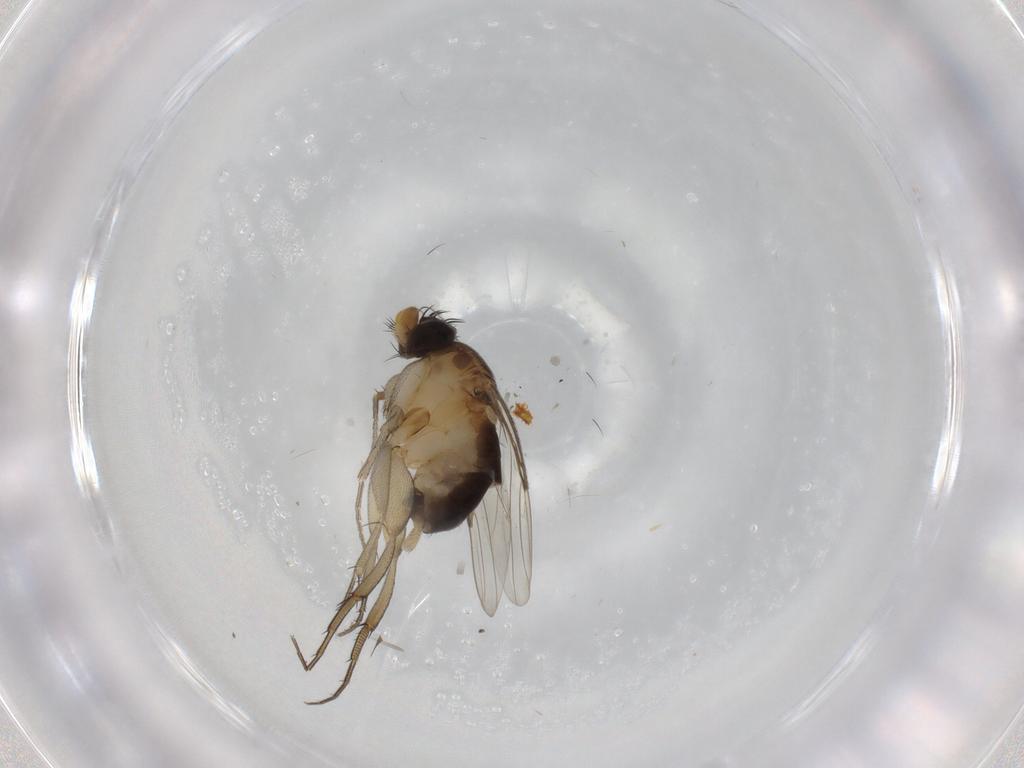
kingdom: Animalia
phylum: Arthropoda
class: Insecta
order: Diptera
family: Phoridae
